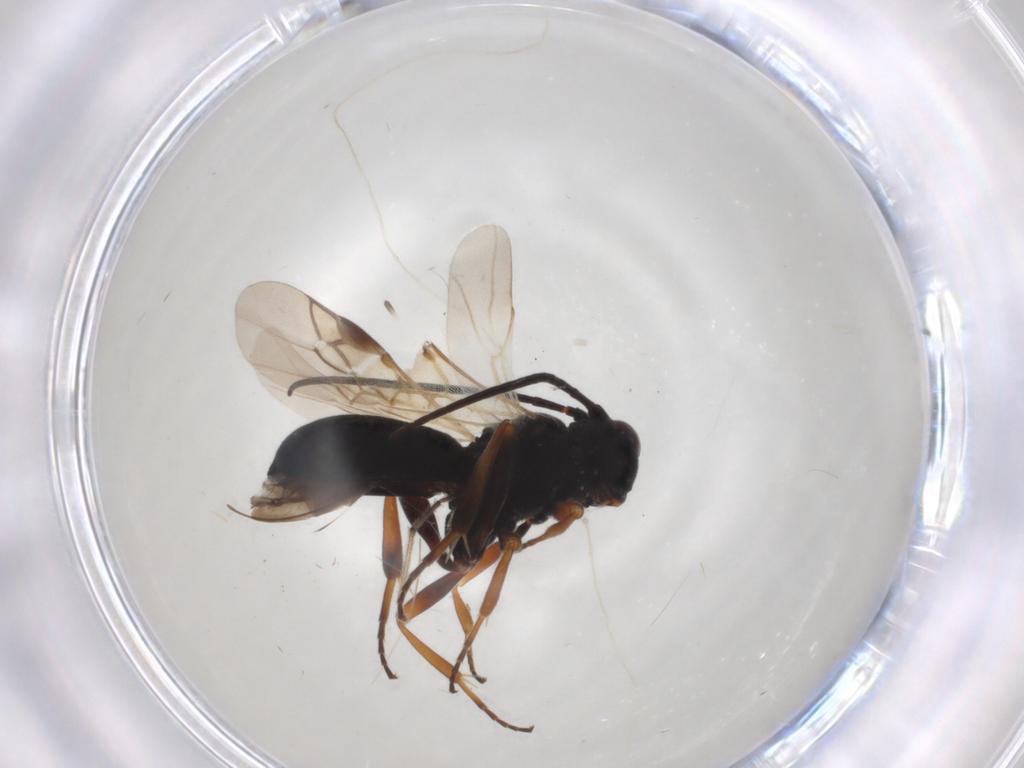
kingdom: Animalia
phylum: Arthropoda
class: Insecta
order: Hymenoptera
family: Braconidae
